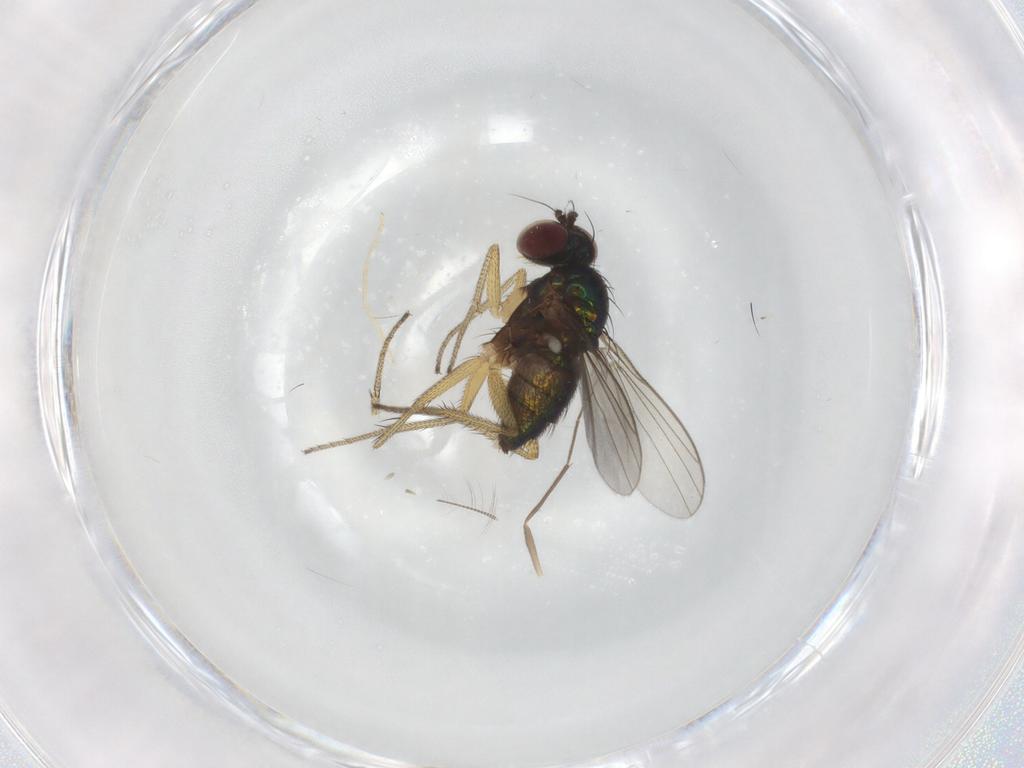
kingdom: Animalia
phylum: Arthropoda
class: Insecta
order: Diptera
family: Chironomidae
